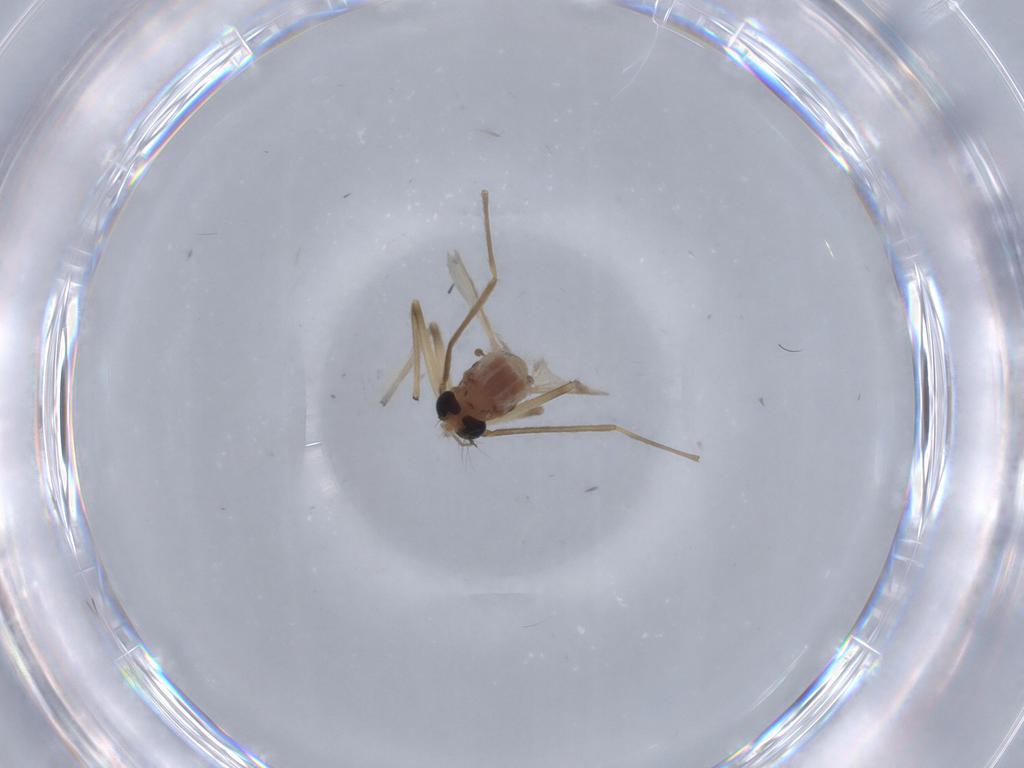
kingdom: Animalia
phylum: Arthropoda
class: Insecta
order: Diptera
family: Chironomidae
